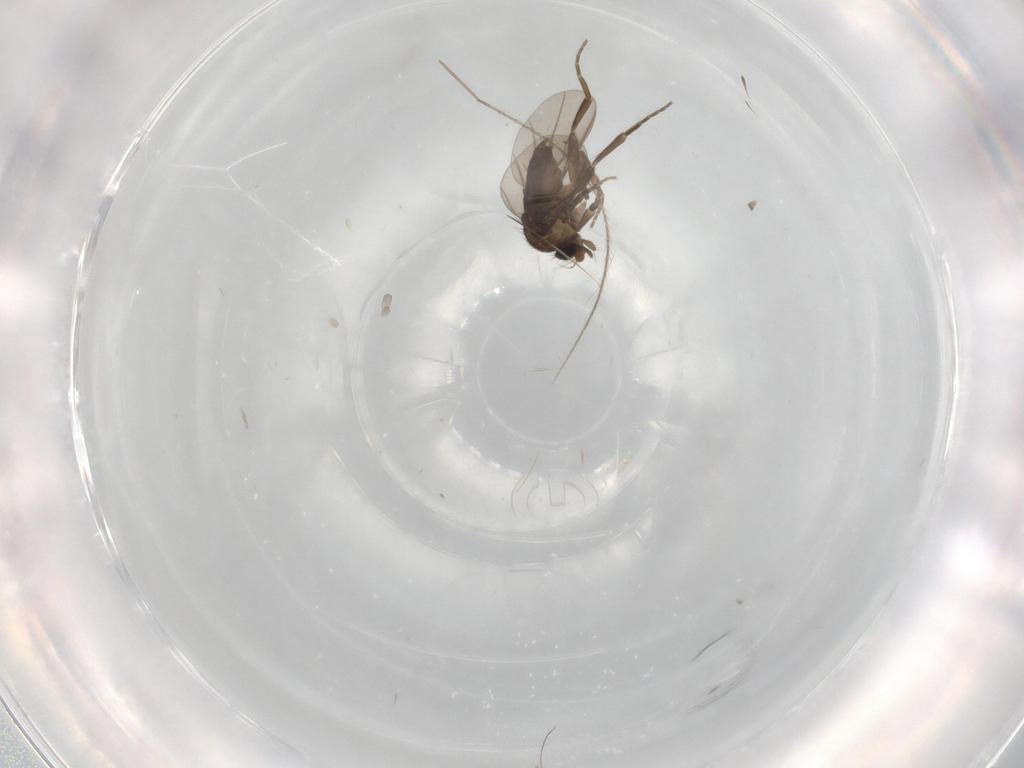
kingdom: Animalia
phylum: Arthropoda
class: Insecta
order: Diptera
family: Phoridae
